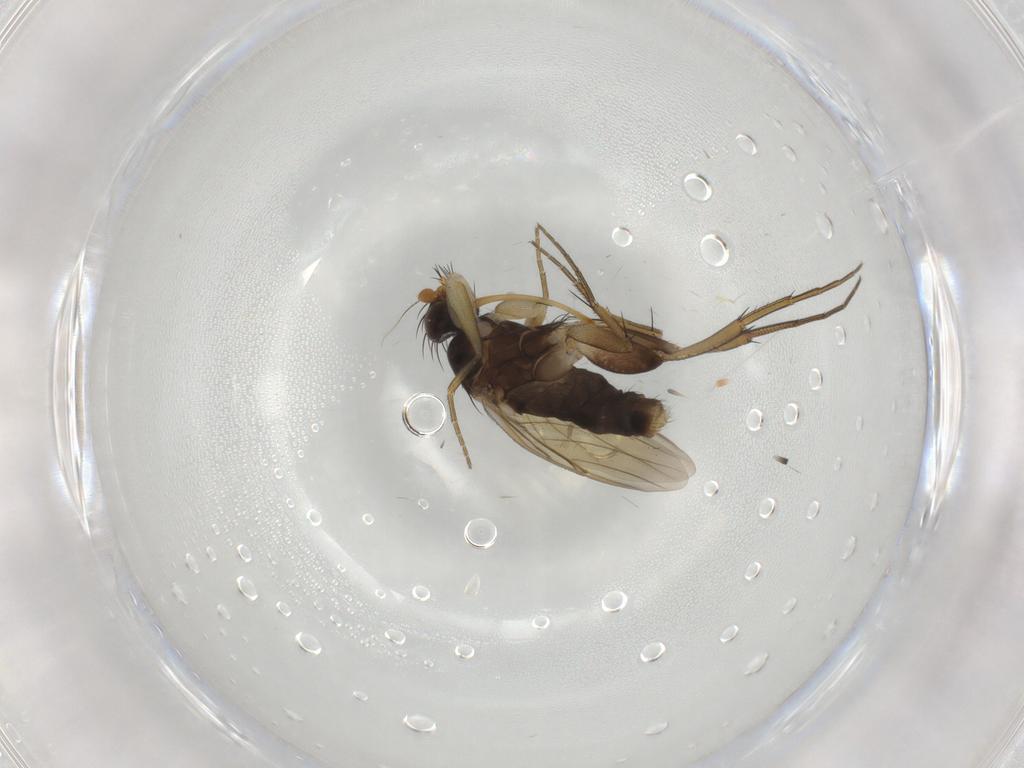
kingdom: Animalia
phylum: Arthropoda
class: Insecta
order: Diptera
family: Phoridae
